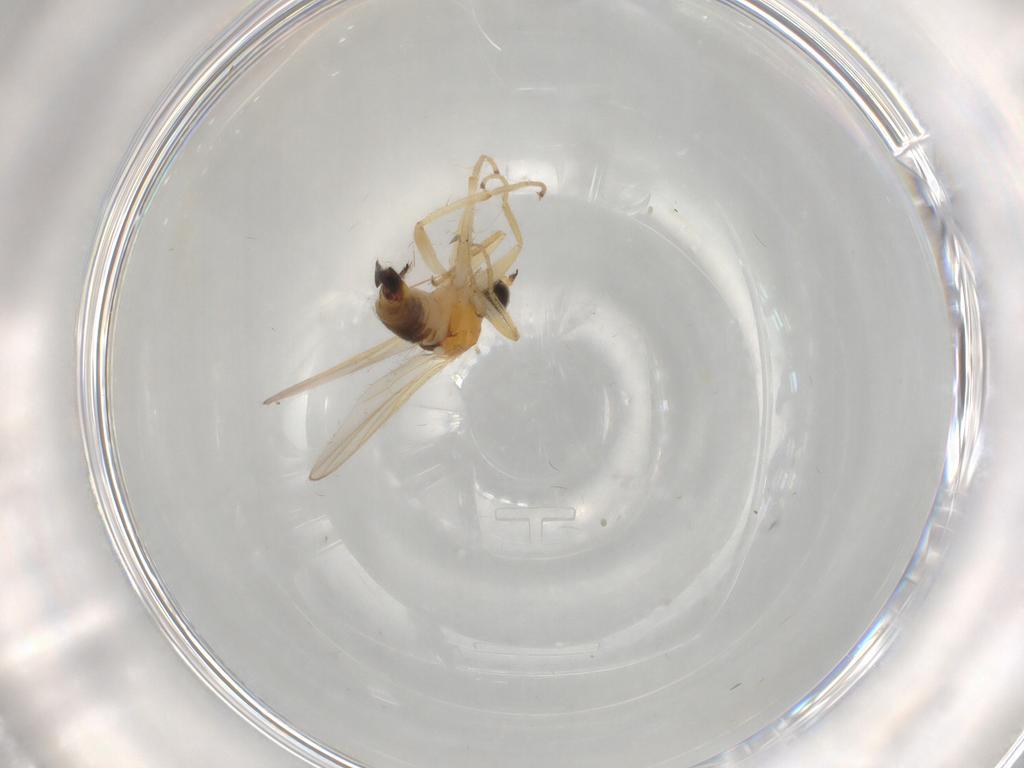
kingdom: Animalia
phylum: Arthropoda
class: Insecta
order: Diptera
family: Hybotidae
